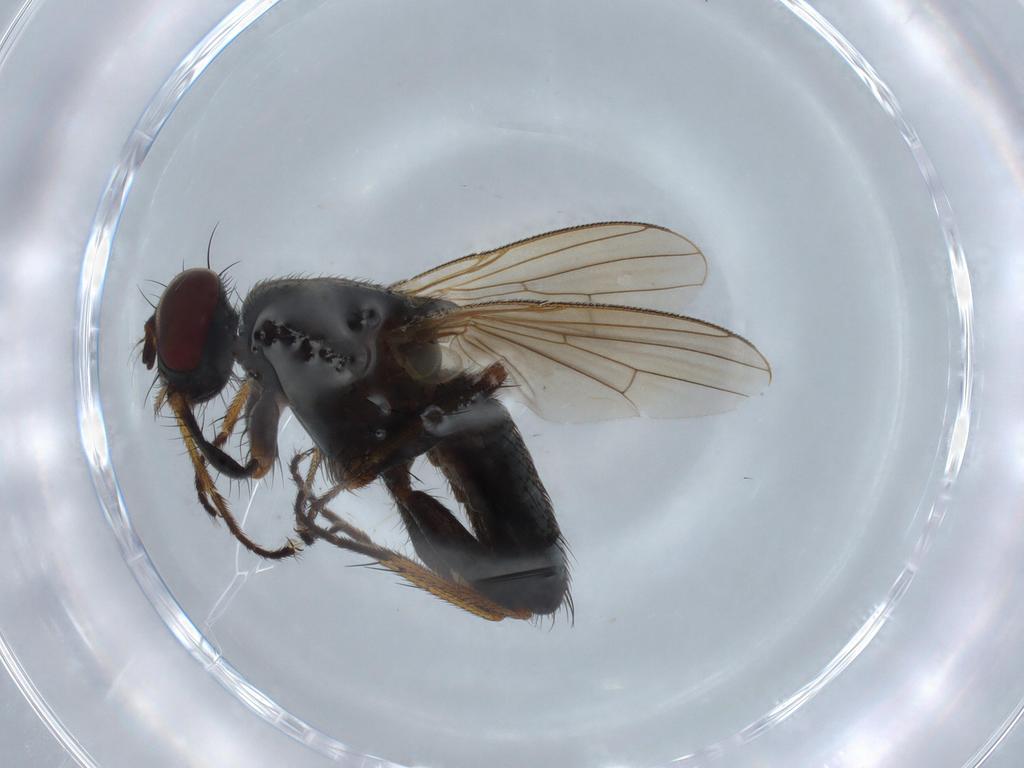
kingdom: Animalia
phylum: Arthropoda
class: Insecta
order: Diptera
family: Muscidae
